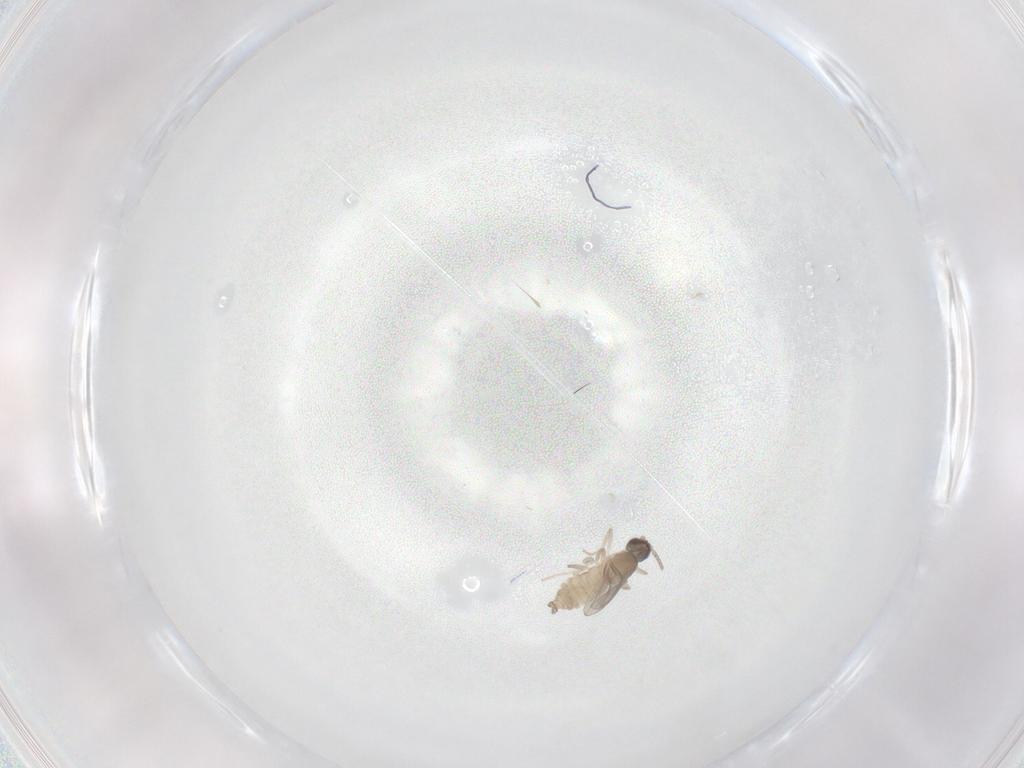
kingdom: Animalia
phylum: Arthropoda
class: Insecta
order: Diptera
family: Cecidomyiidae
